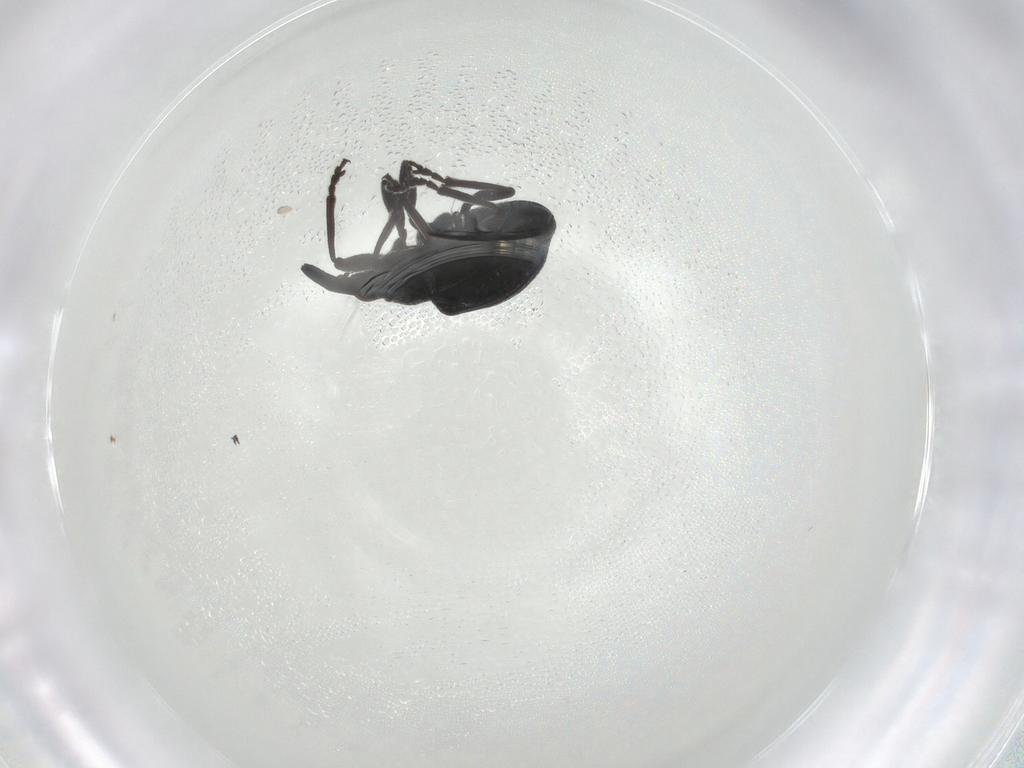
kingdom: Animalia
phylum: Arthropoda
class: Insecta
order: Coleoptera
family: Brentidae
